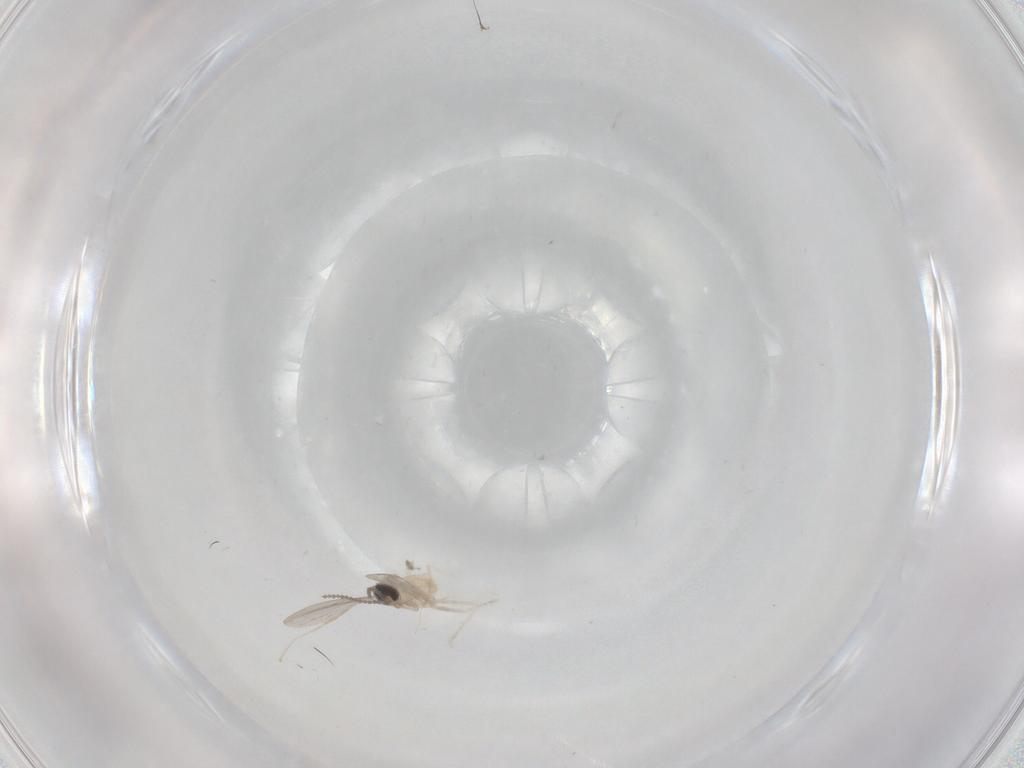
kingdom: Animalia
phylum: Arthropoda
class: Insecta
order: Diptera
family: Cecidomyiidae
